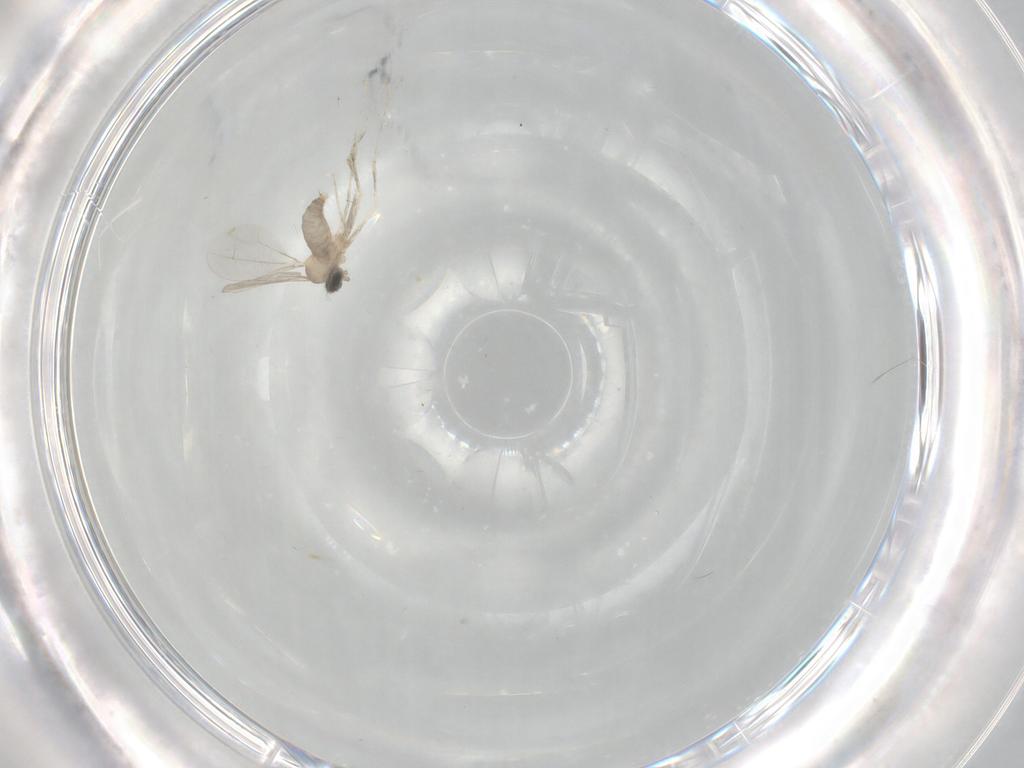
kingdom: Animalia
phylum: Arthropoda
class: Insecta
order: Diptera
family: Cecidomyiidae
